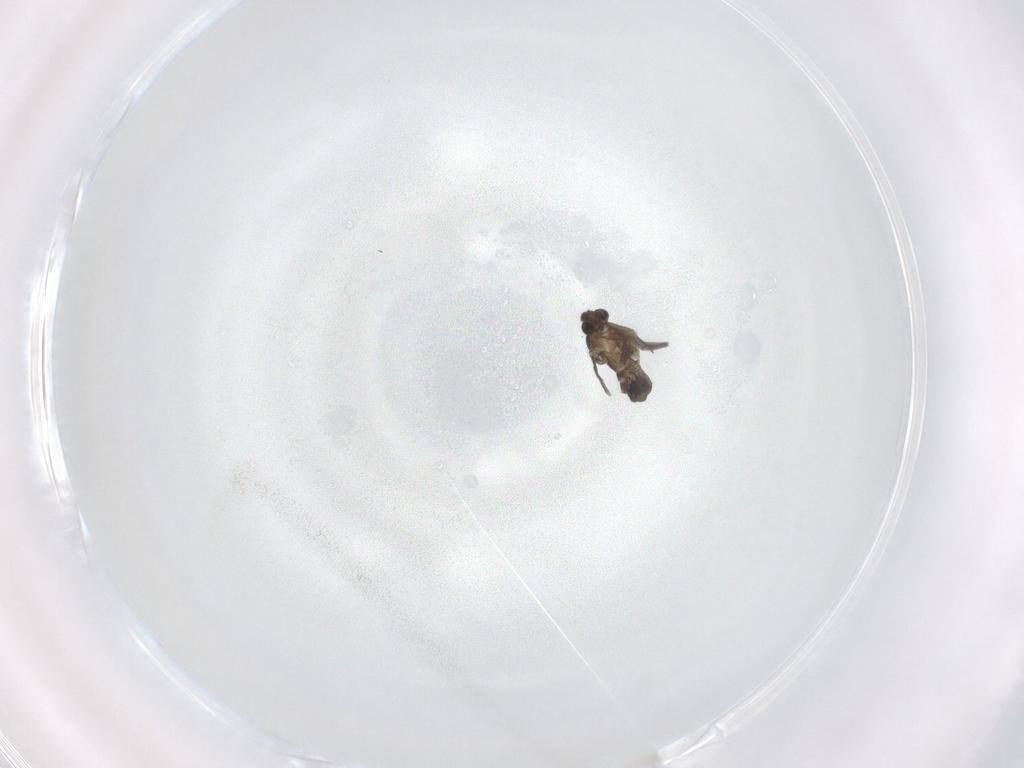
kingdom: Animalia
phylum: Arthropoda
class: Insecta
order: Diptera
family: Phoridae
